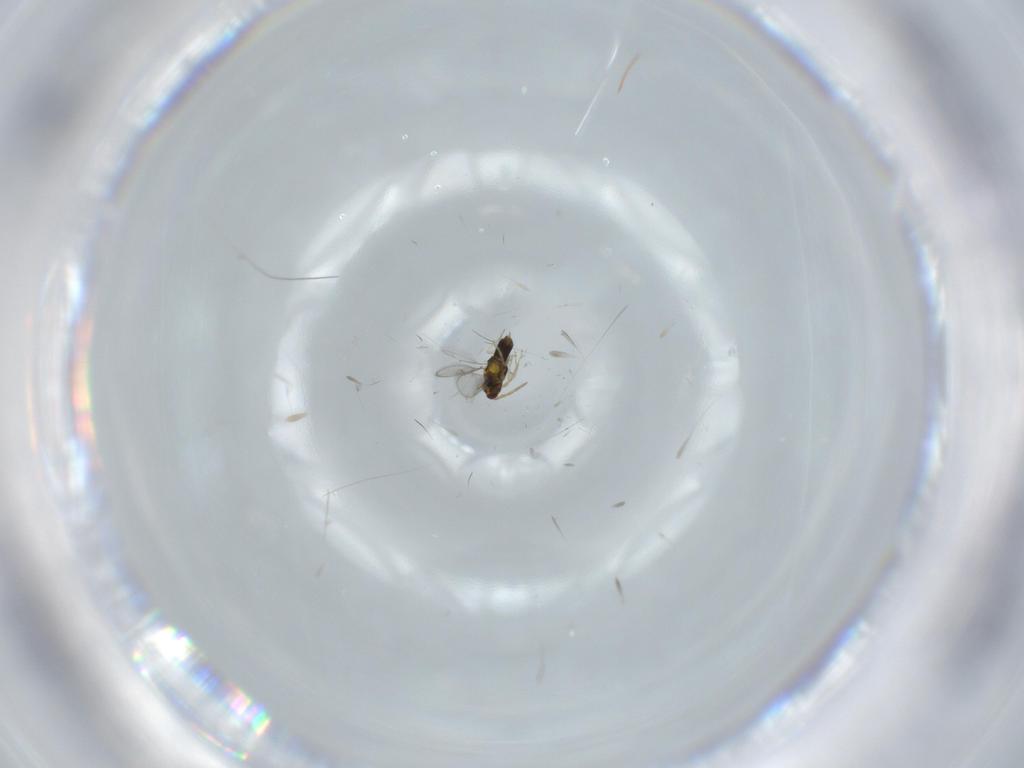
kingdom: Animalia
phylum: Arthropoda
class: Insecta
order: Hymenoptera
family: Aphelinidae
